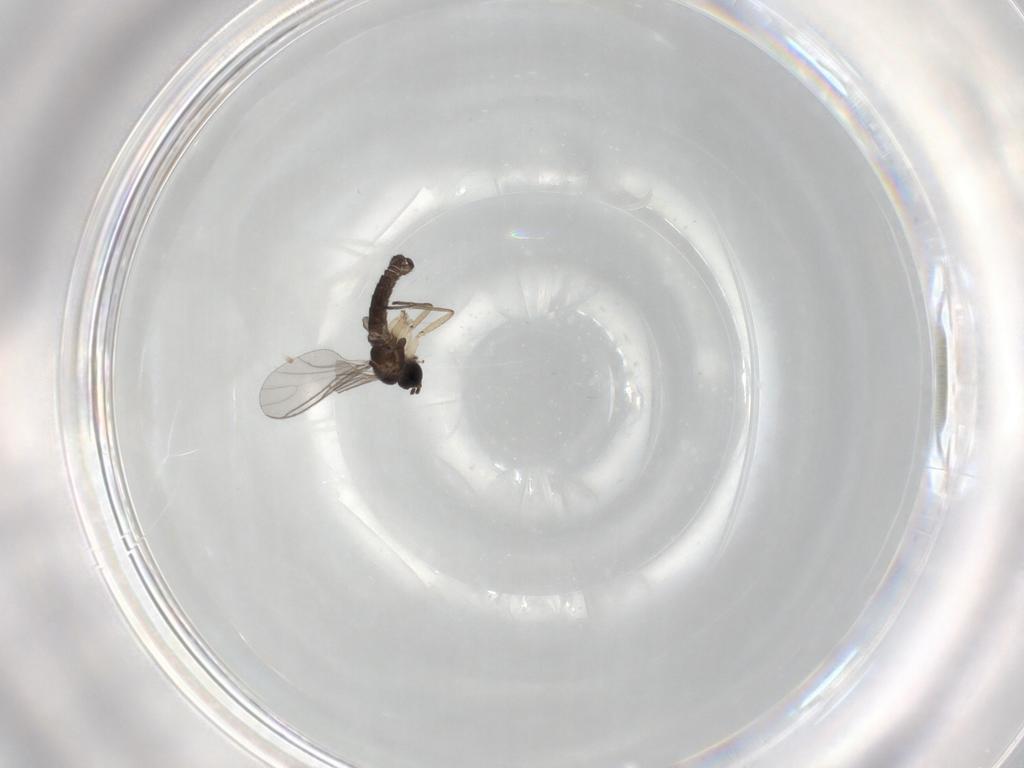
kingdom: Animalia
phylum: Arthropoda
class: Insecta
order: Diptera
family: Sciaridae
